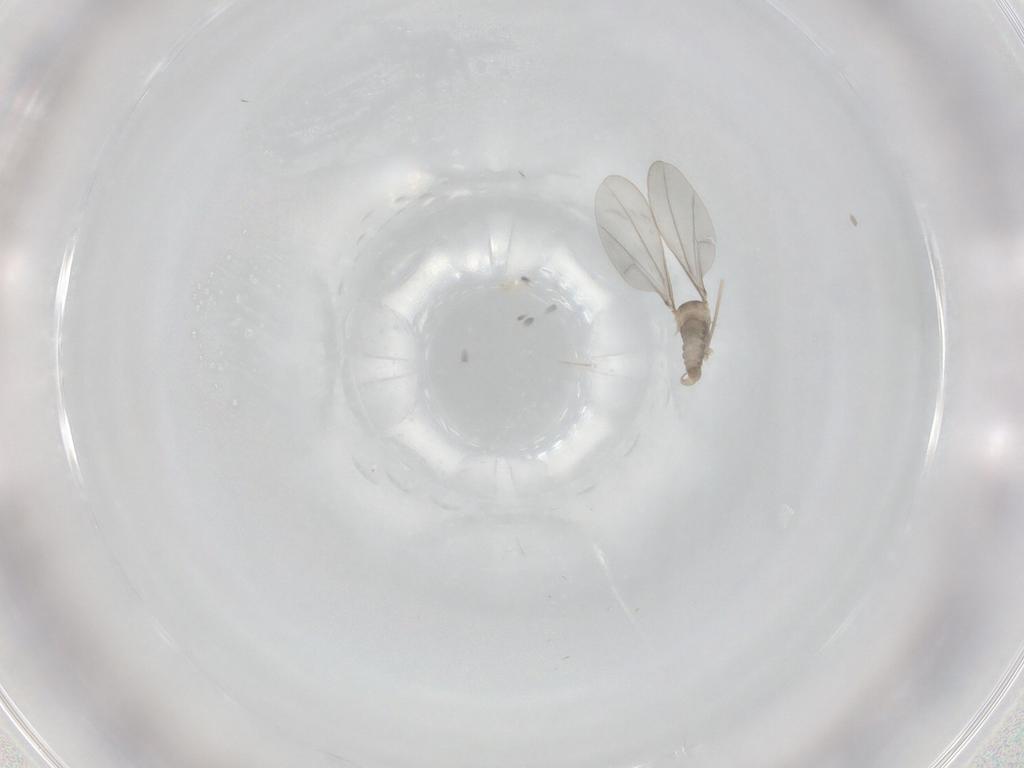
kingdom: Animalia
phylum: Arthropoda
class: Insecta
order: Diptera
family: Cecidomyiidae
